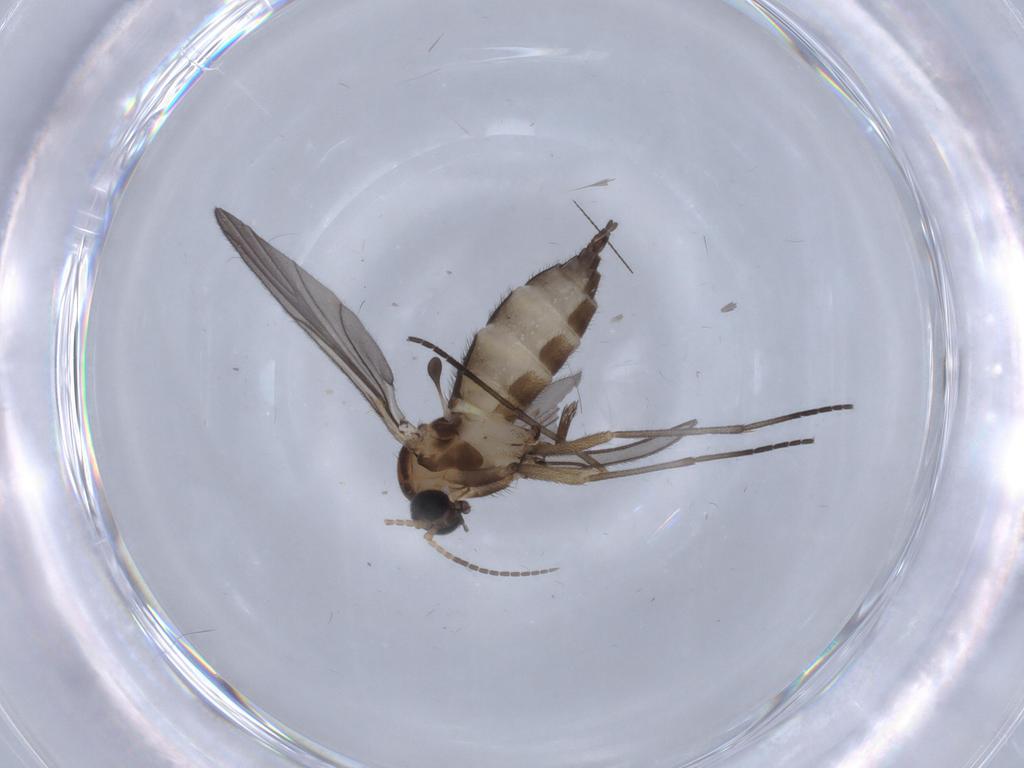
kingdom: Animalia
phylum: Arthropoda
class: Insecta
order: Diptera
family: Sciaridae
